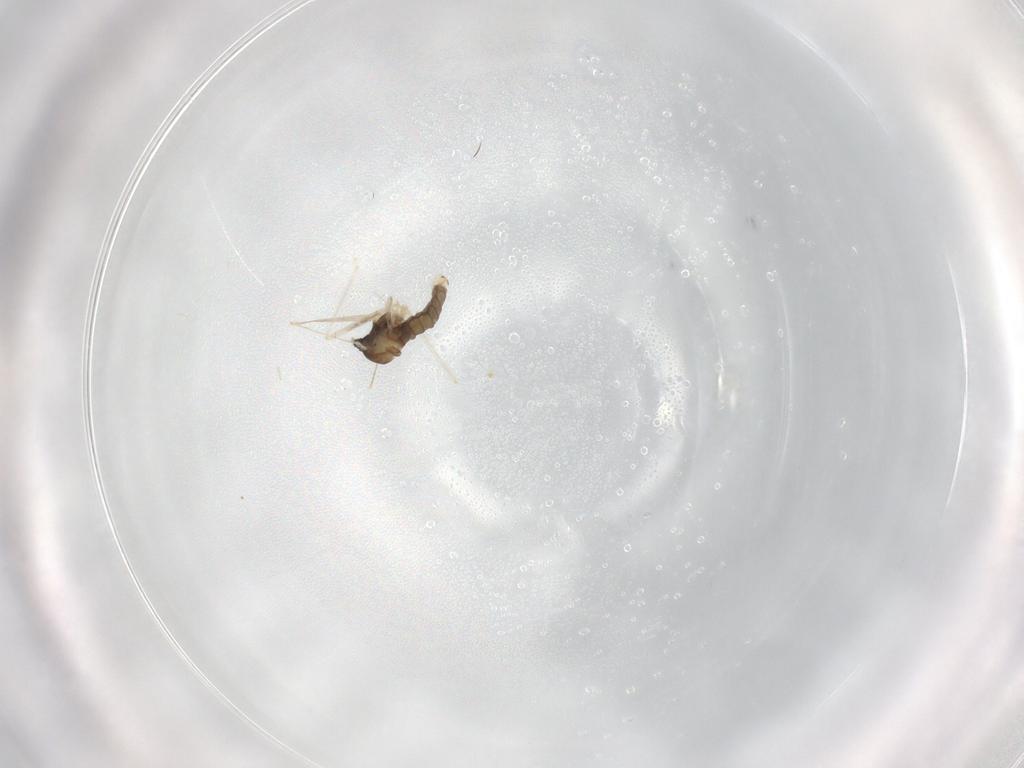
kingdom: Animalia
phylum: Arthropoda
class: Insecta
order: Diptera
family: Cecidomyiidae
